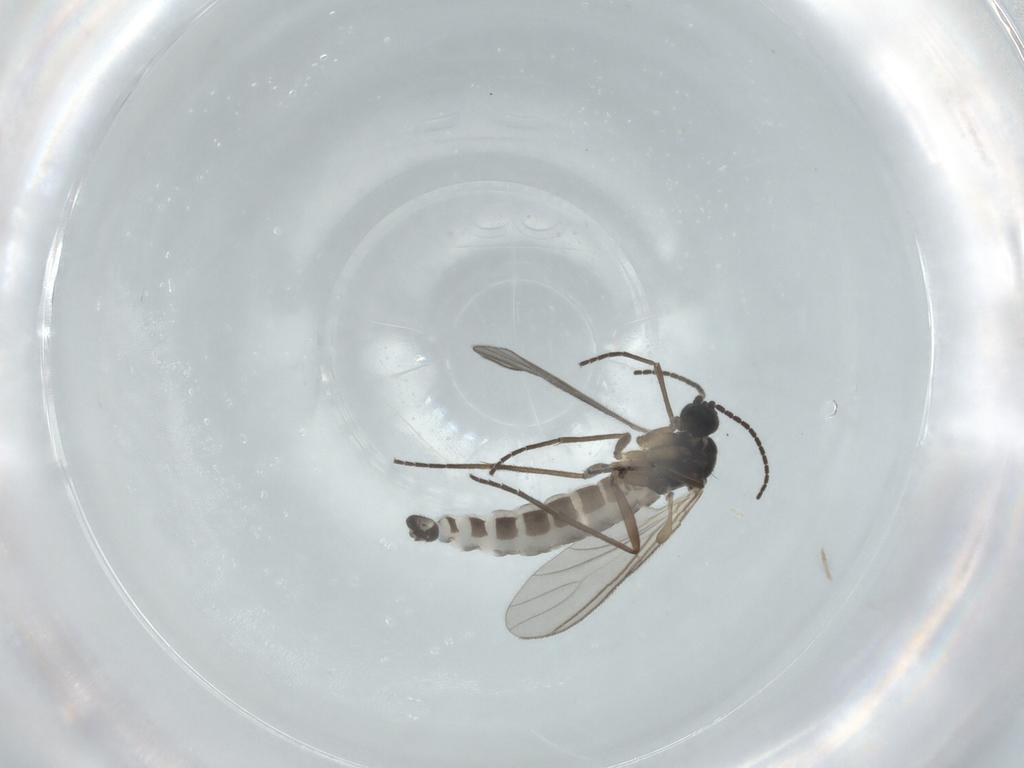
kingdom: Animalia
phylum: Arthropoda
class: Insecta
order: Diptera
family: Sciaridae
